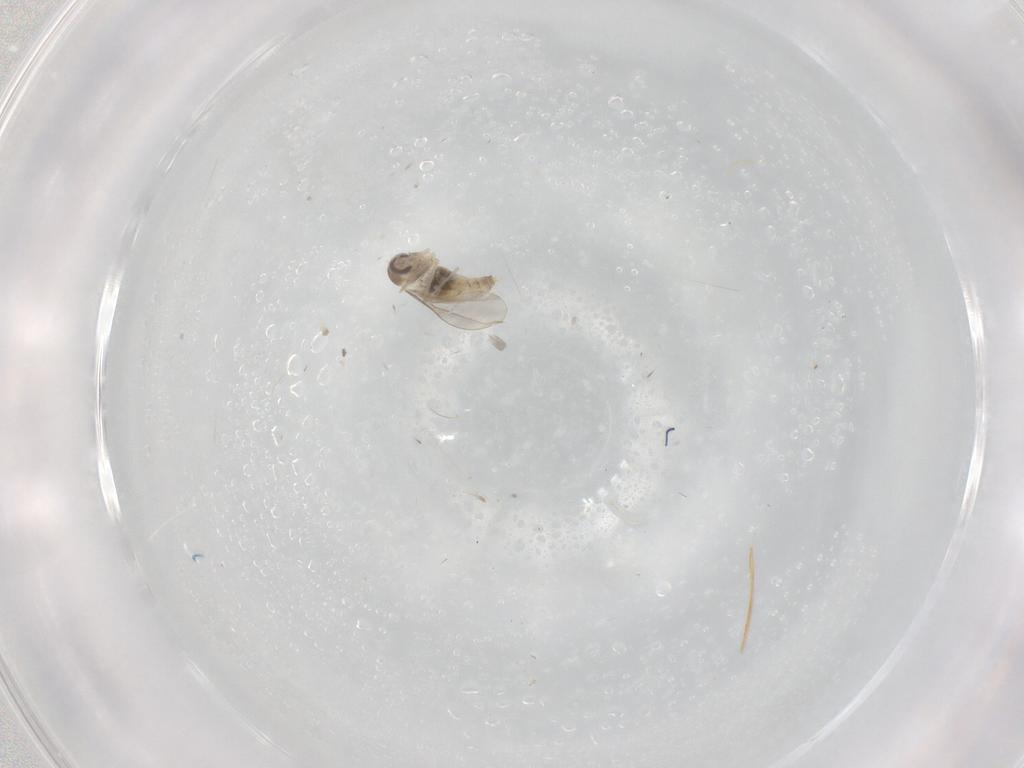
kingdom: Animalia
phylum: Arthropoda
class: Insecta
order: Diptera
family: Cecidomyiidae
